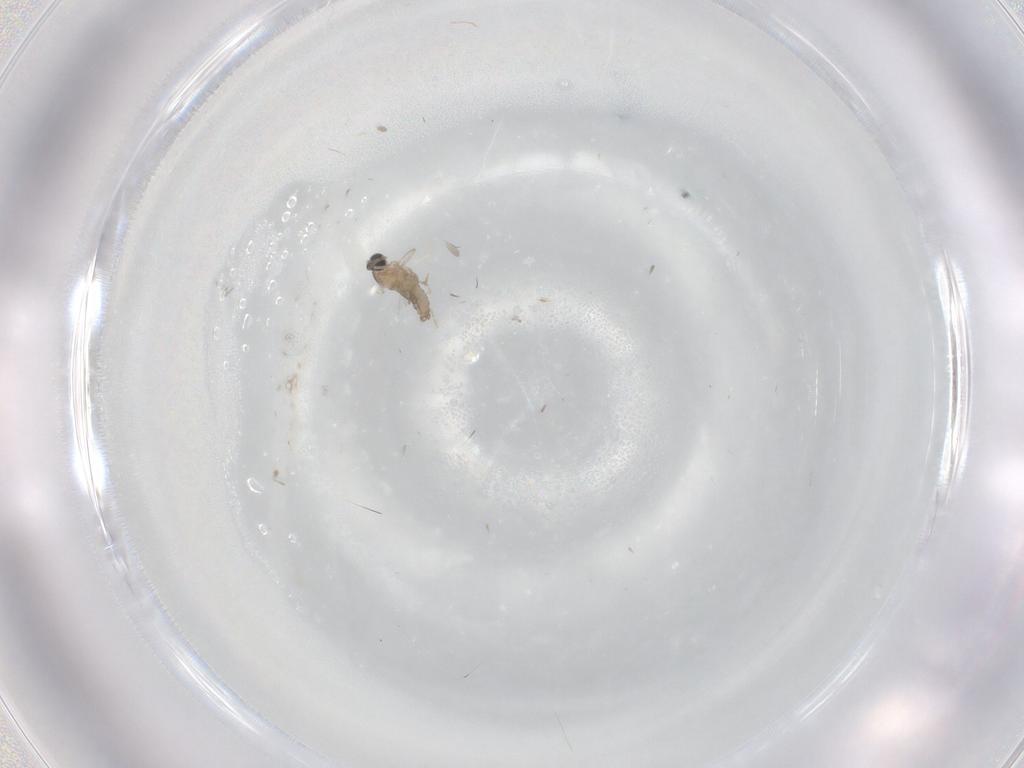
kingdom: Animalia
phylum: Arthropoda
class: Insecta
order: Diptera
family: Cecidomyiidae
